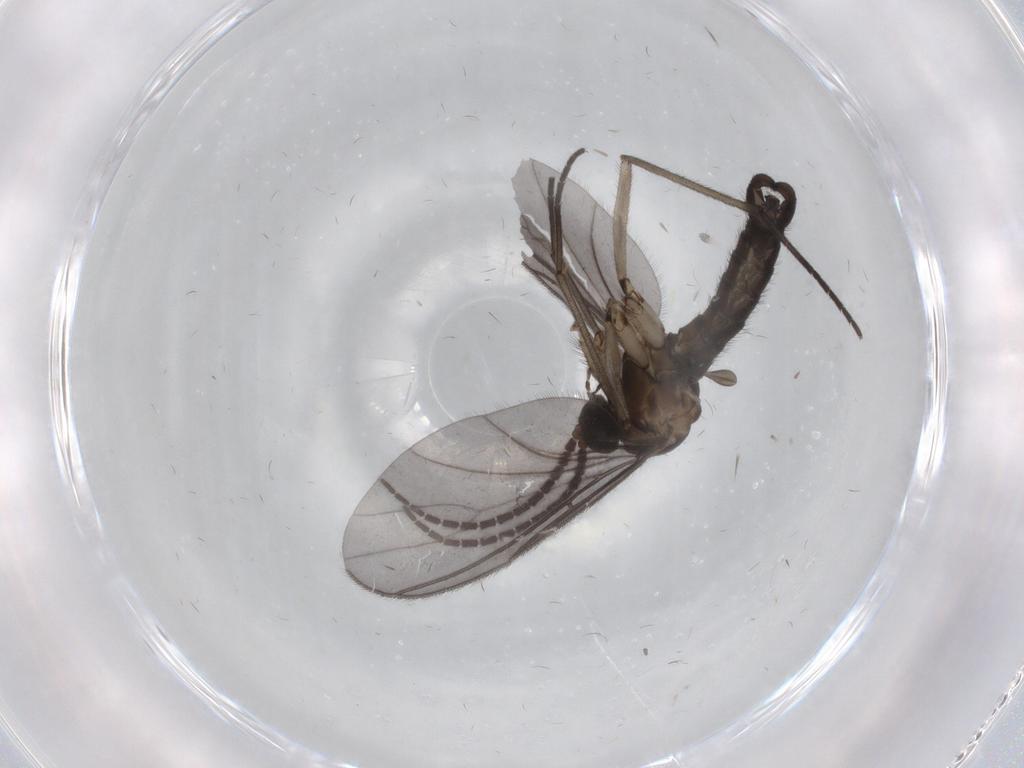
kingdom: Animalia
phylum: Arthropoda
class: Insecta
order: Diptera
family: Sciaridae
